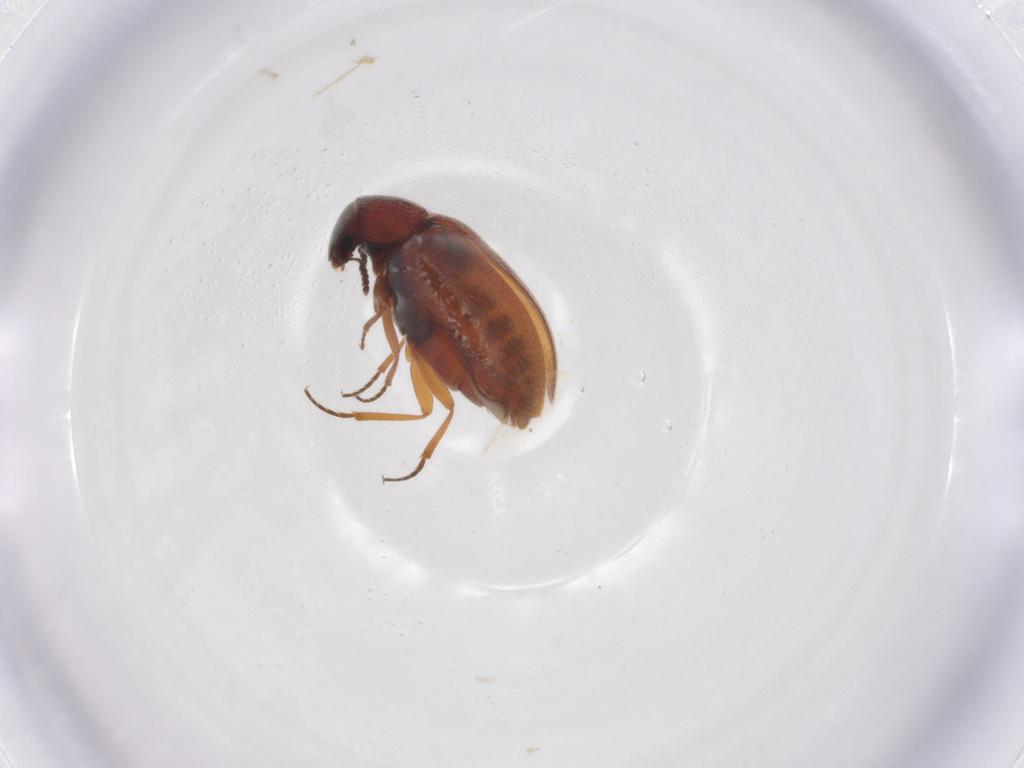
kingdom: Animalia
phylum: Arthropoda
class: Insecta
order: Coleoptera
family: Rhadalidae
